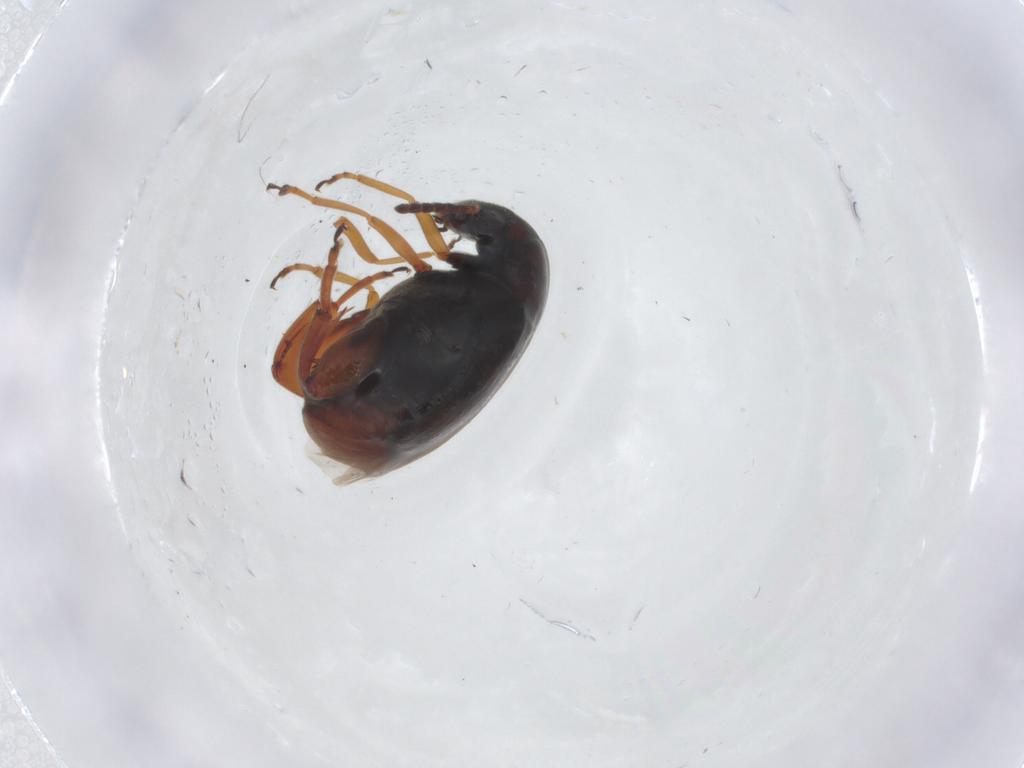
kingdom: Animalia
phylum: Arthropoda
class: Insecta
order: Coleoptera
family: Chrysomelidae
